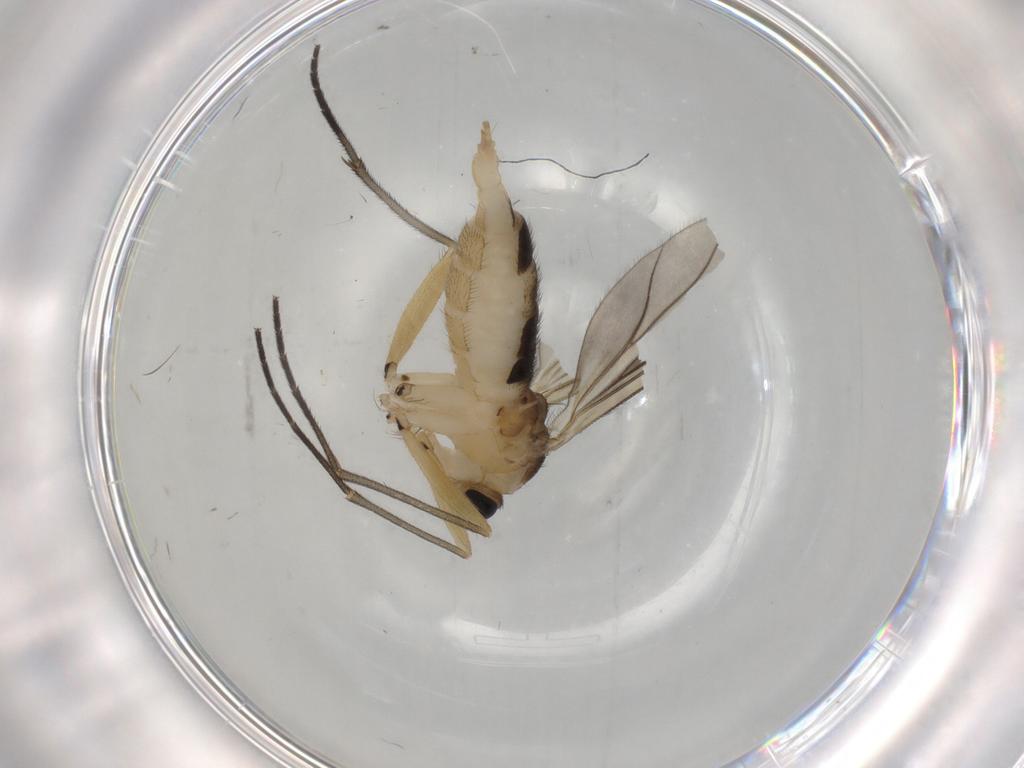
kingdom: Animalia
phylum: Arthropoda
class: Insecta
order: Diptera
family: Sciaridae
